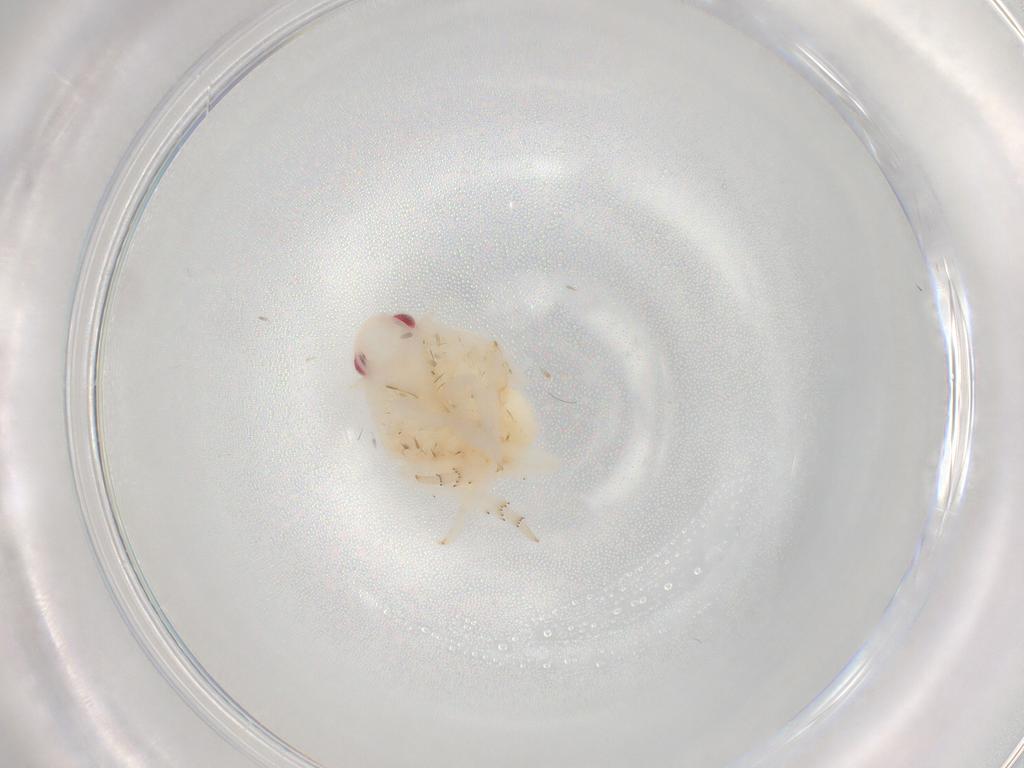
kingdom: Animalia
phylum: Arthropoda
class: Insecta
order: Hemiptera
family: Flatidae
